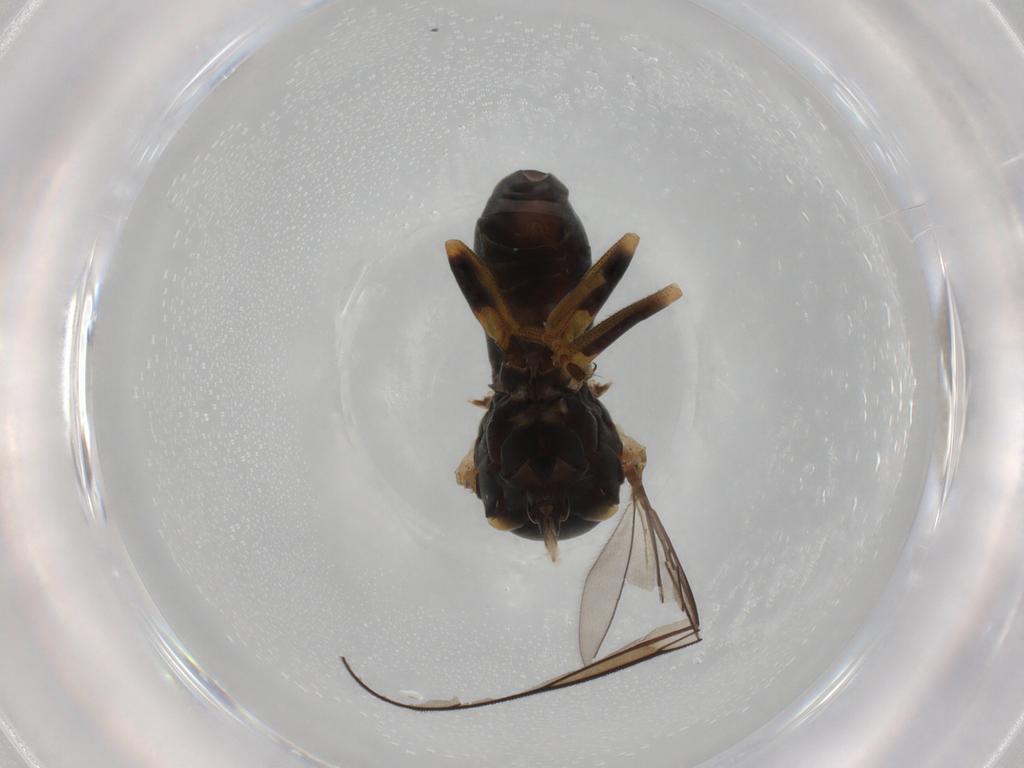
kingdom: Animalia
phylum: Arthropoda
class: Insecta
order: Diptera
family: Pipunculidae
